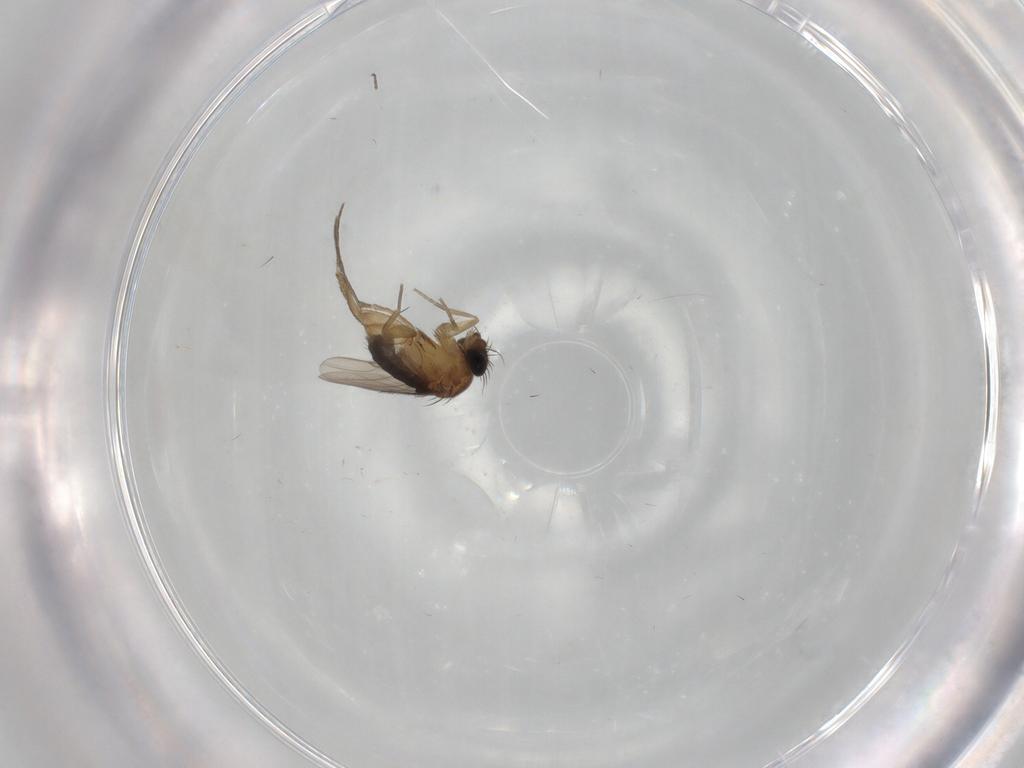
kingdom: Animalia
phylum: Arthropoda
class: Insecta
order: Diptera
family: Phoridae
